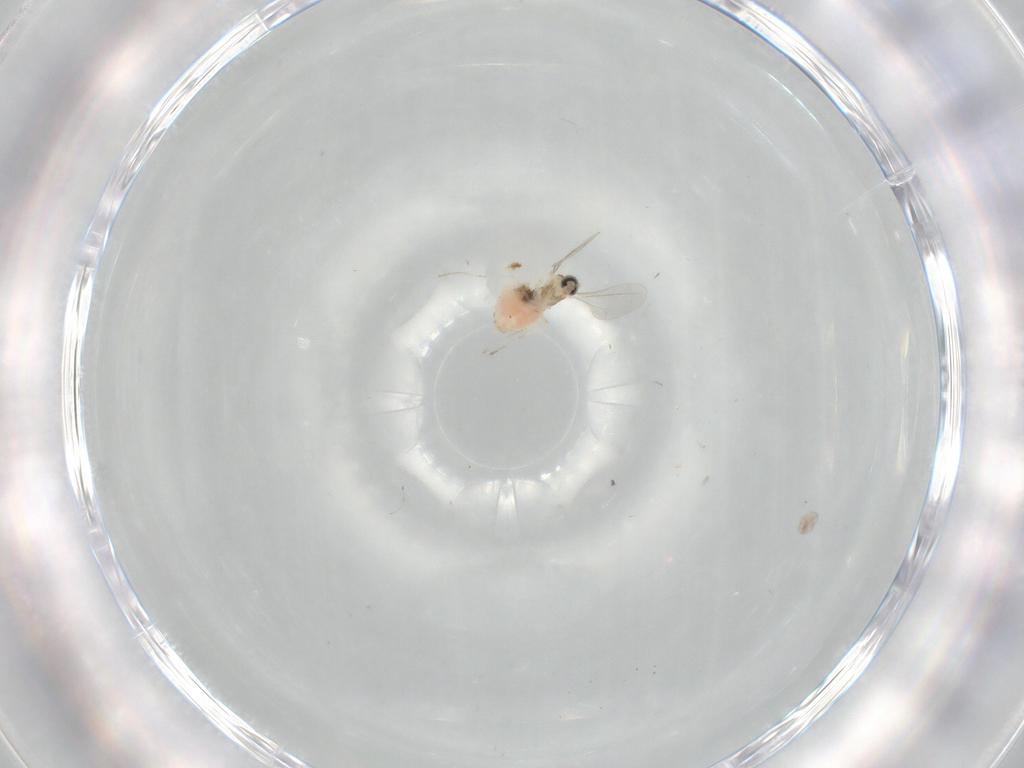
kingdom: Animalia
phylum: Arthropoda
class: Insecta
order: Diptera
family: Cecidomyiidae
